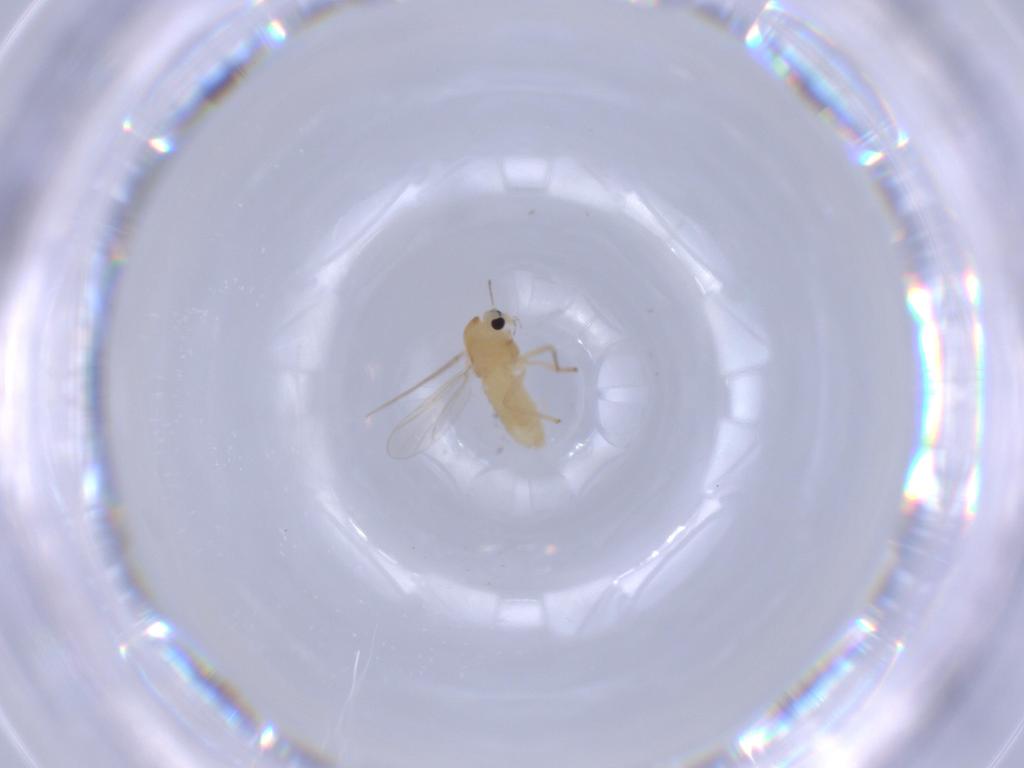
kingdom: Animalia
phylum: Arthropoda
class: Insecta
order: Diptera
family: Chironomidae
